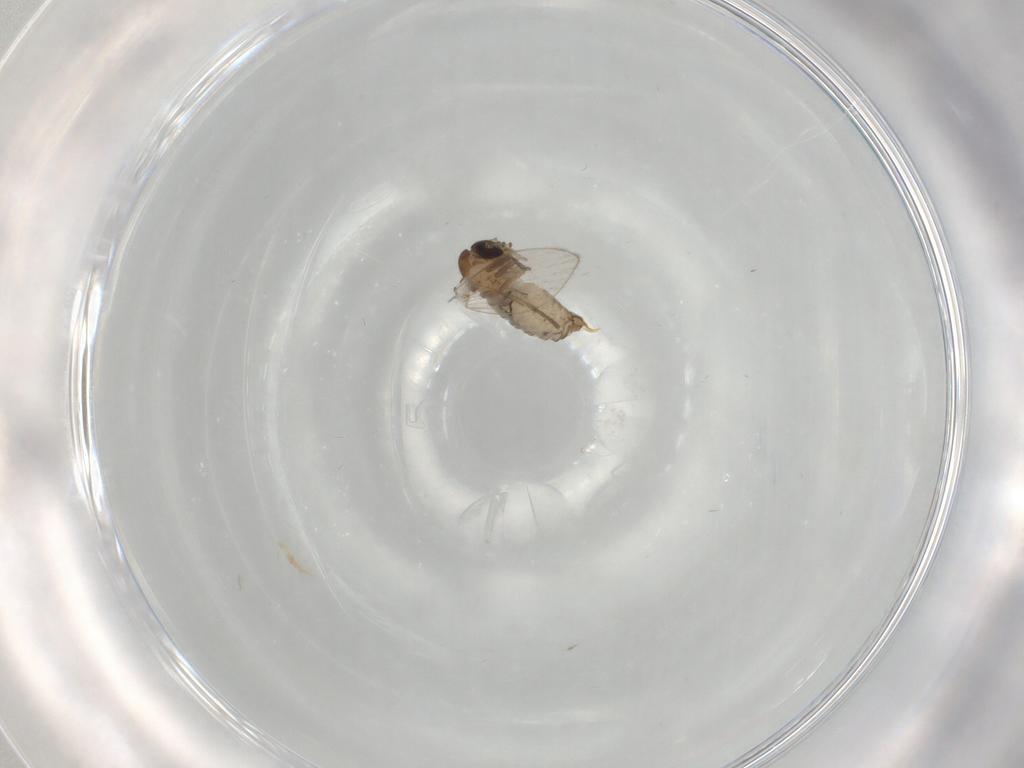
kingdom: Animalia
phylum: Arthropoda
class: Insecta
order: Diptera
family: Psychodidae
